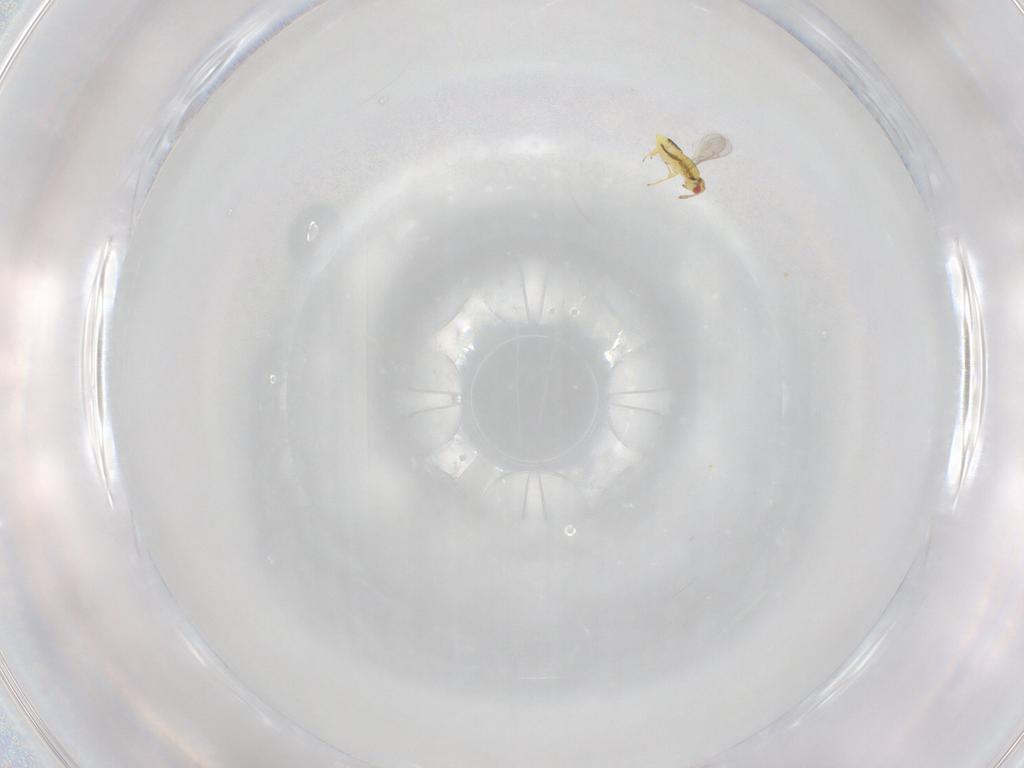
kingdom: Animalia
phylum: Arthropoda
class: Insecta
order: Hymenoptera
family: Aphelinidae
